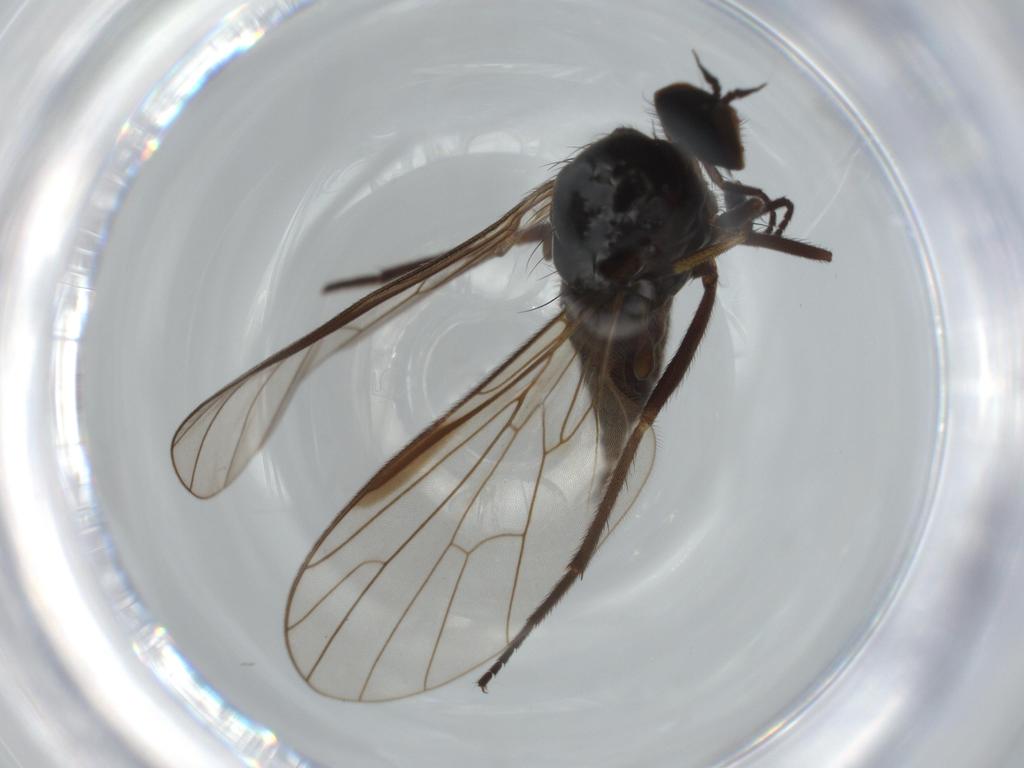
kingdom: Animalia
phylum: Arthropoda
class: Insecta
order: Diptera
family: Empididae
